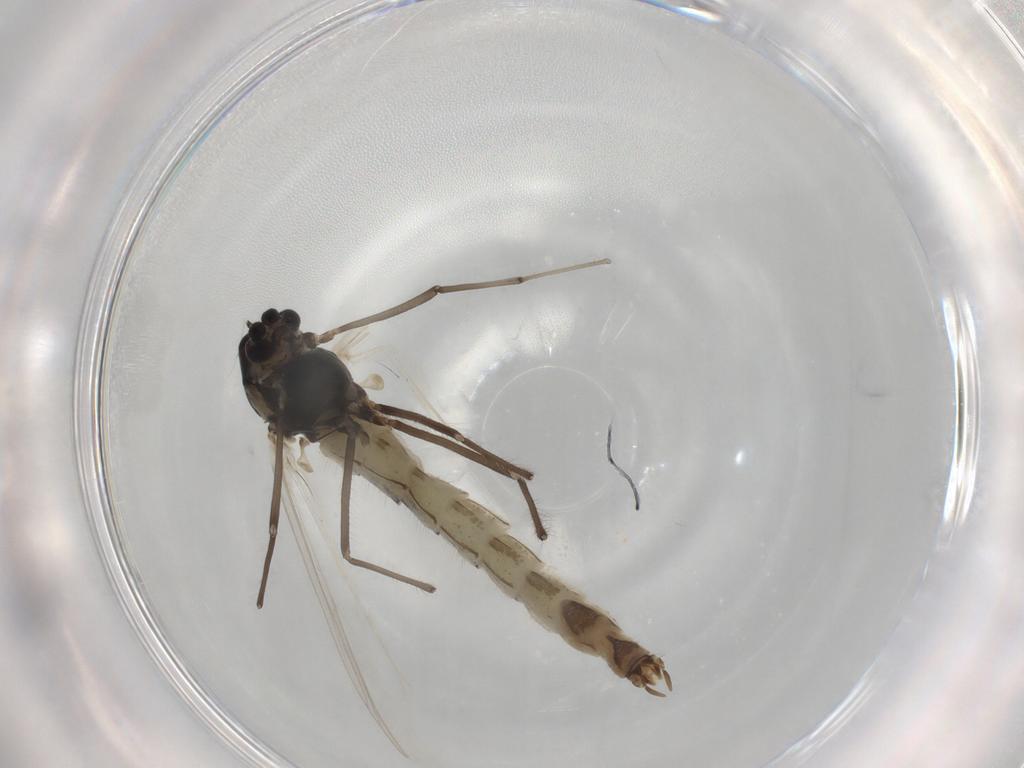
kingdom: Animalia
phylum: Arthropoda
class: Insecta
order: Diptera
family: Chironomidae
